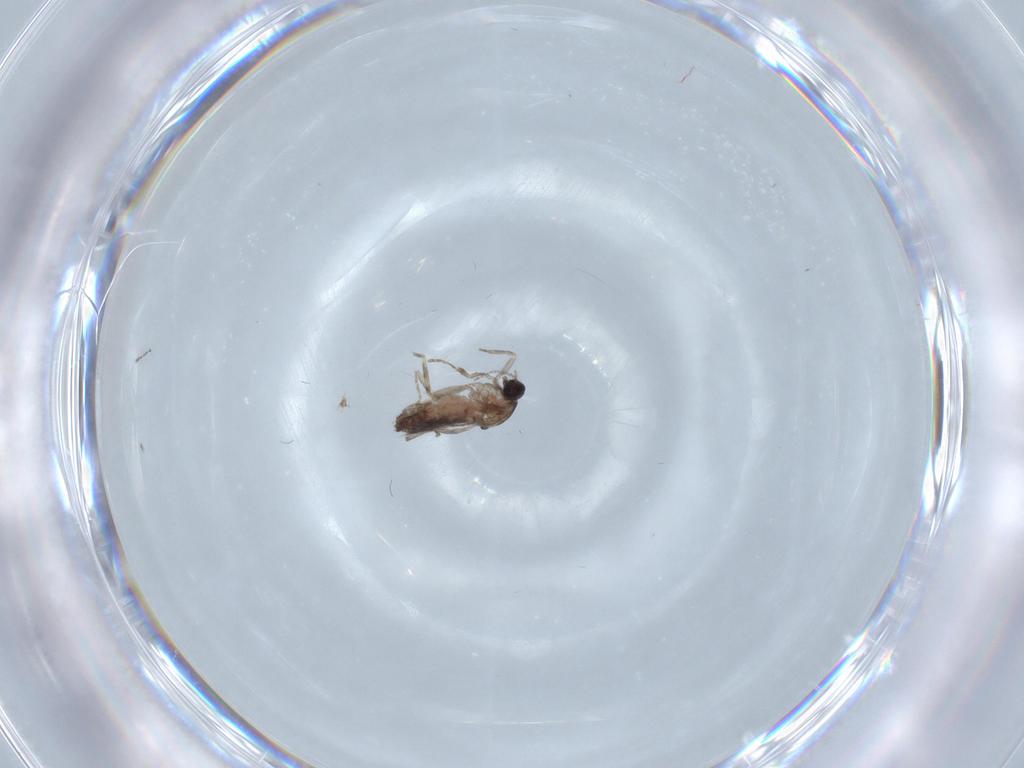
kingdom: Animalia
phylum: Arthropoda
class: Insecta
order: Diptera
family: Cecidomyiidae
